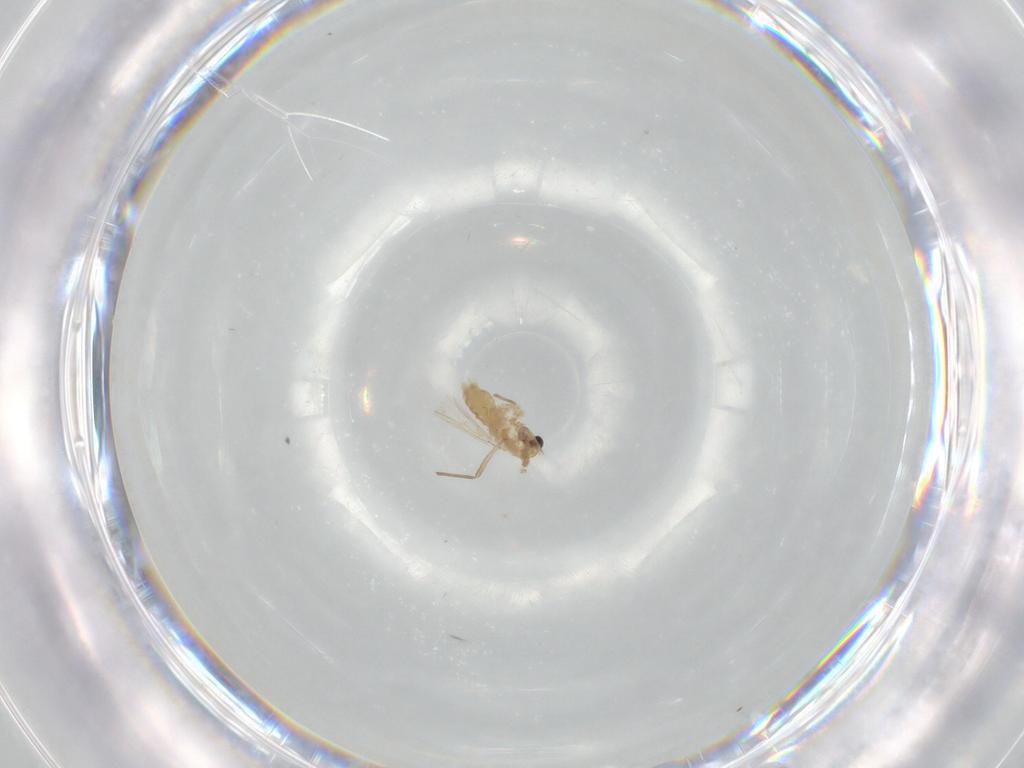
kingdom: Animalia
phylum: Arthropoda
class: Insecta
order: Diptera
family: Chironomidae
